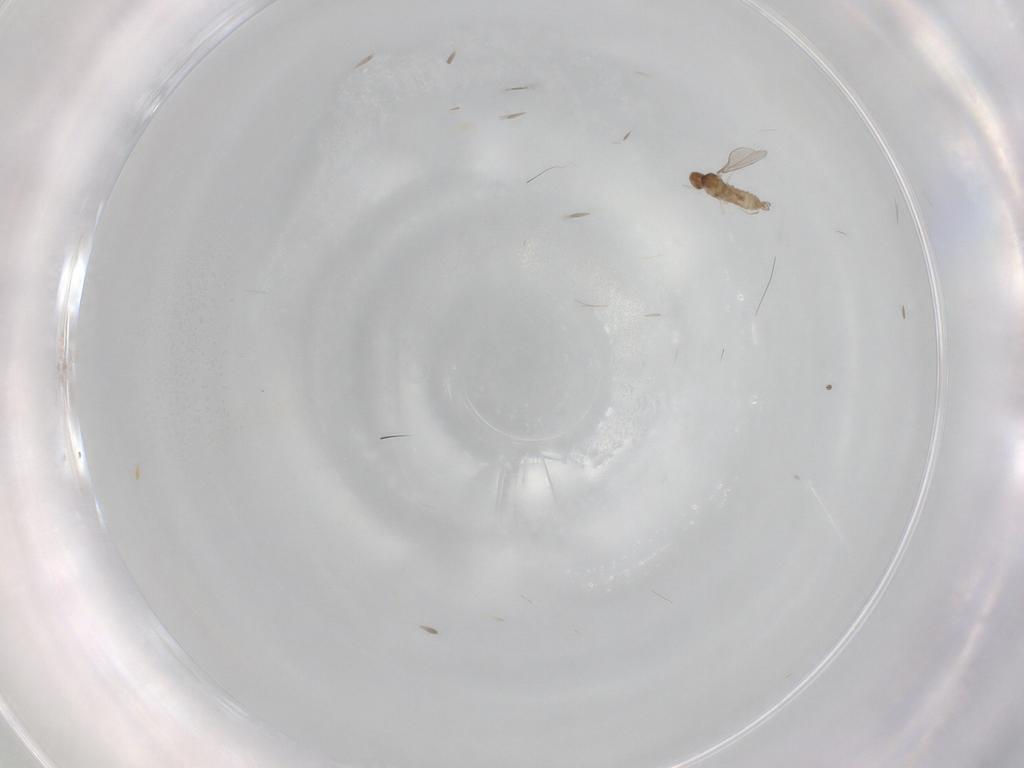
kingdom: Animalia
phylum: Arthropoda
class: Insecta
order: Diptera
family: Cecidomyiidae
